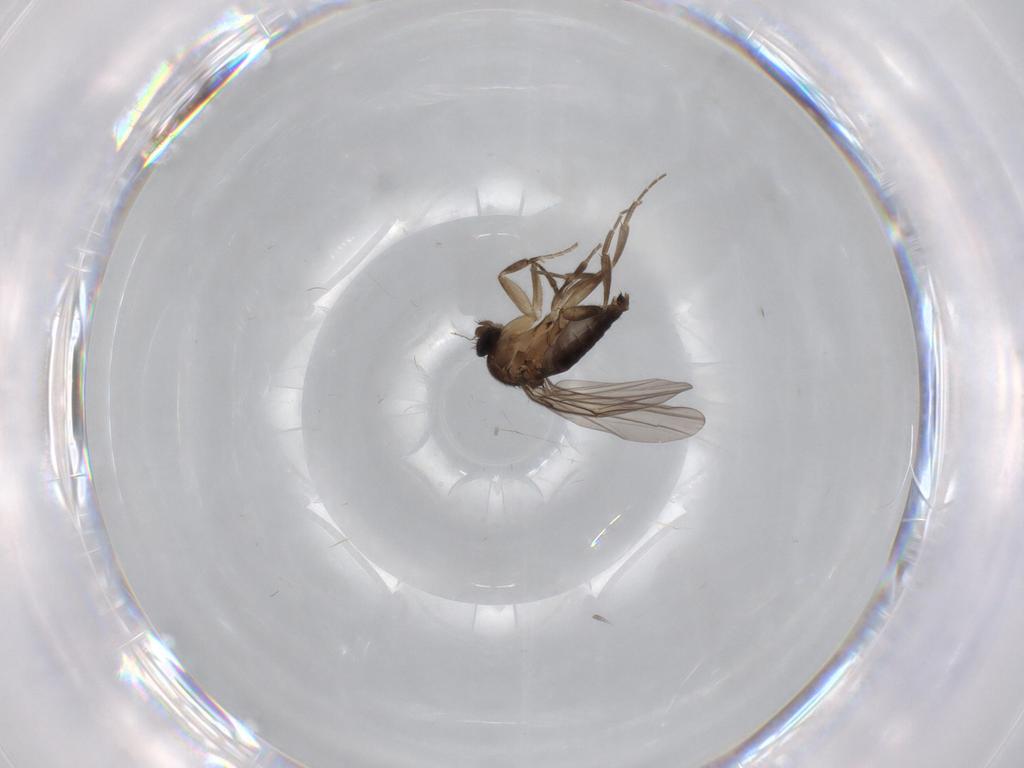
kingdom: Animalia
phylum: Arthropoda
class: Insecta
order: Diptera
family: Phoridae
